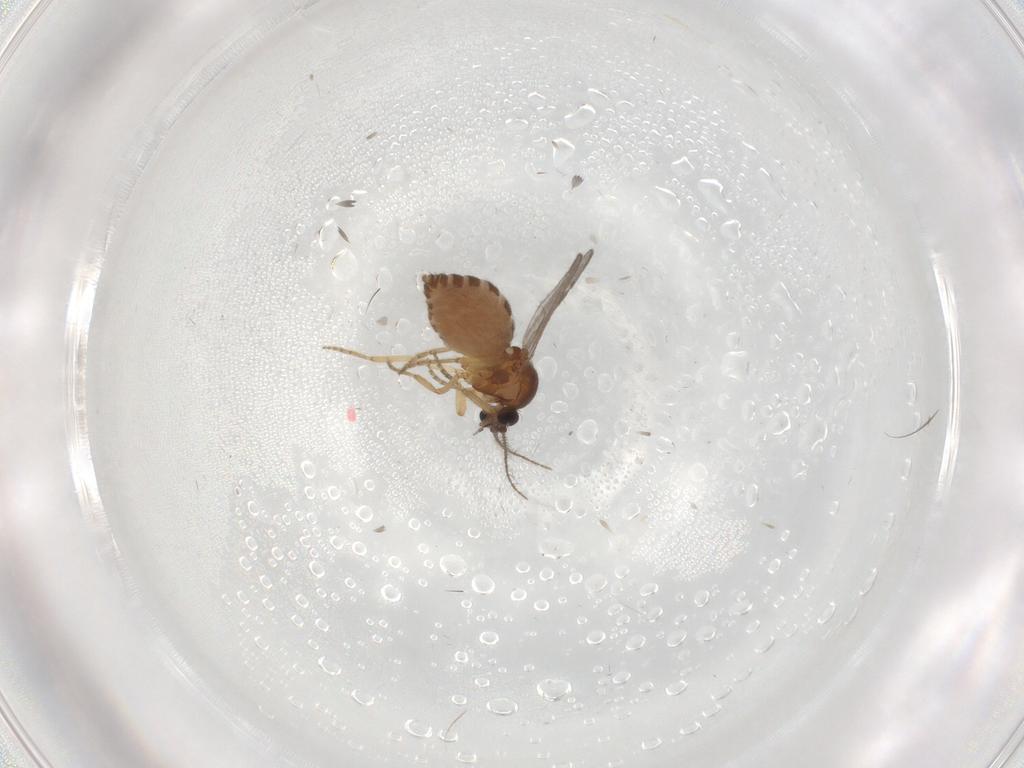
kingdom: Animalia
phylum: Arthropoda
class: Insecta
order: Diptera
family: Ceratopogonidae
